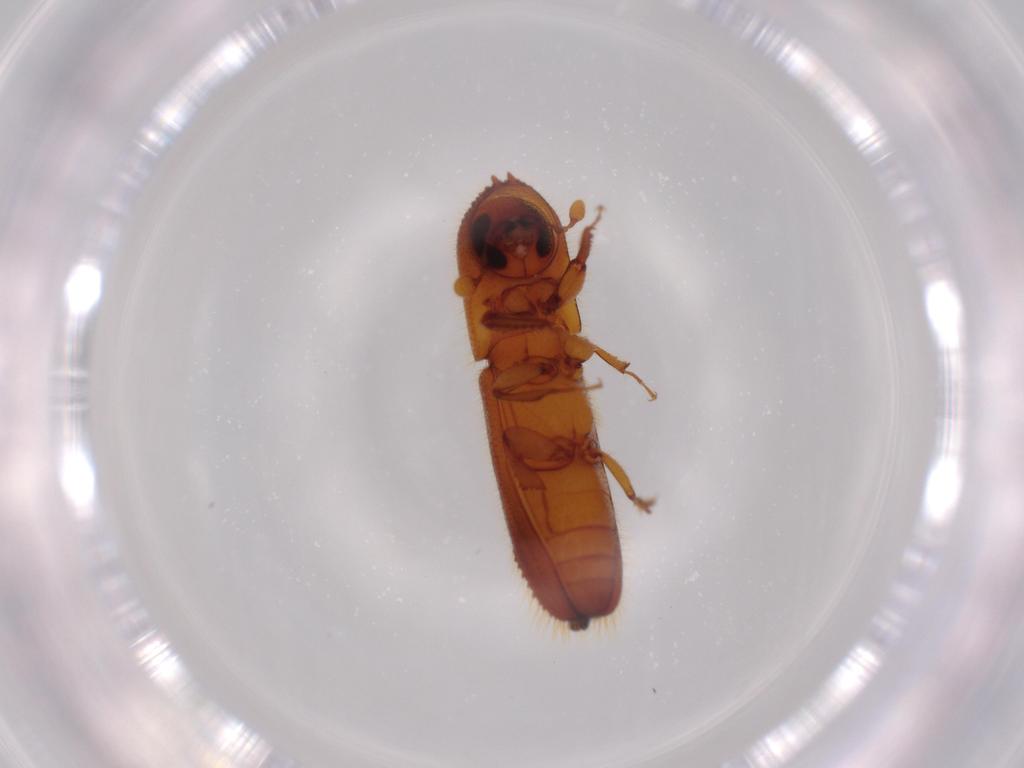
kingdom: Animalia
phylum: Arthropoda
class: Insecta
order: Coleoptera
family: Curculionidae
